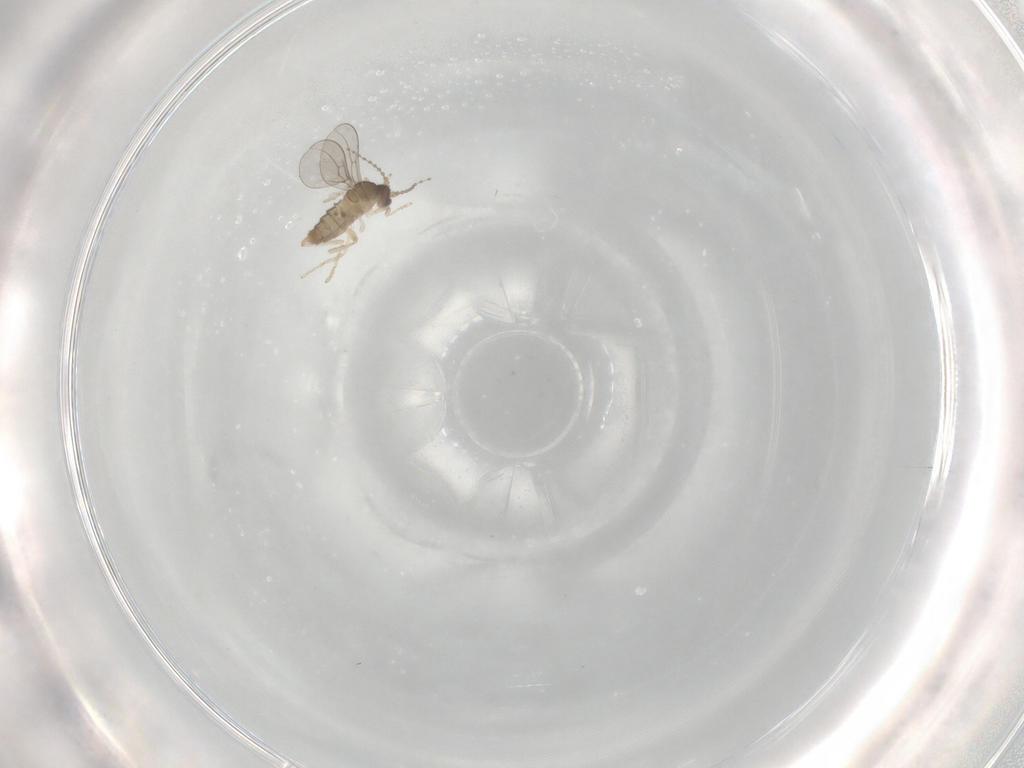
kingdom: Animalia
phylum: Arthropoda
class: Insecta
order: Diptera
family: Cecidomyiidae
